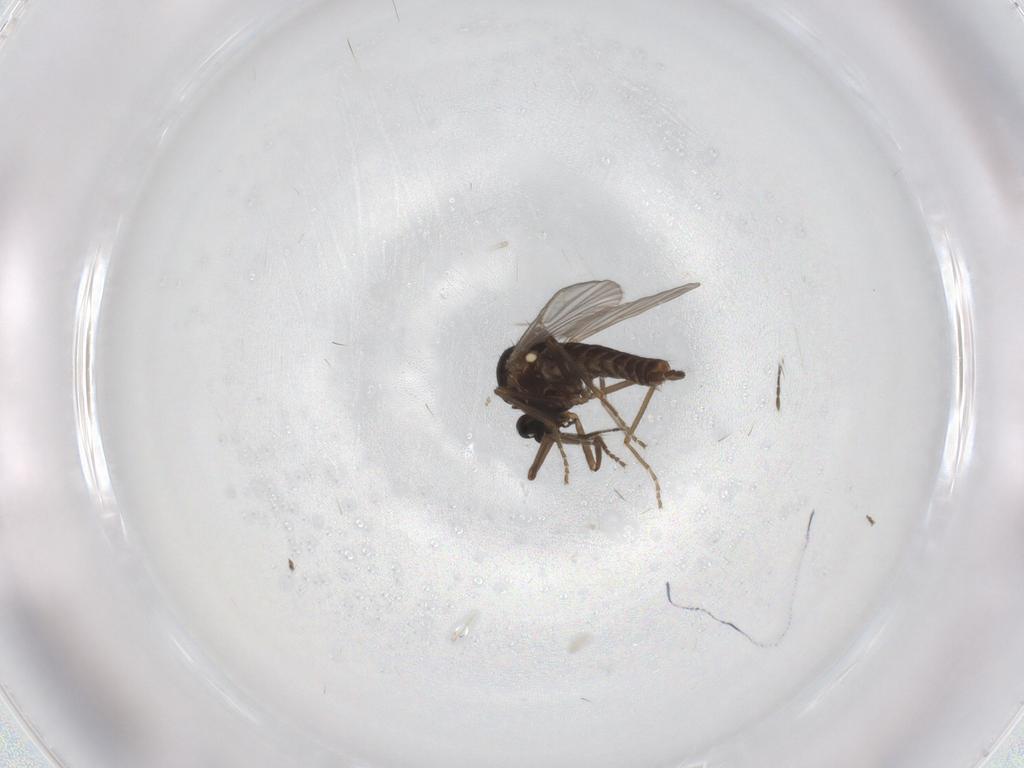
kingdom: Animalia
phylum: Arthropoda
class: Insecta
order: Diptera
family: Ceratopogonidae
